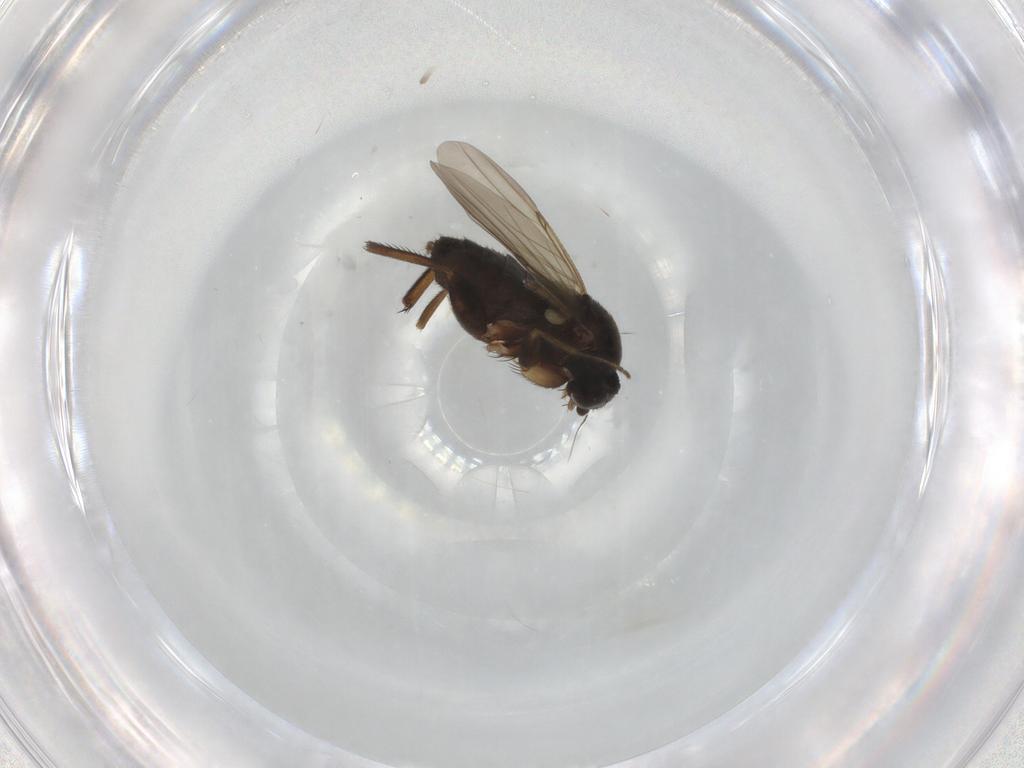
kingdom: Animalia
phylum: Arthropoda
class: Insecta
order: Diptera
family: Phoridae
